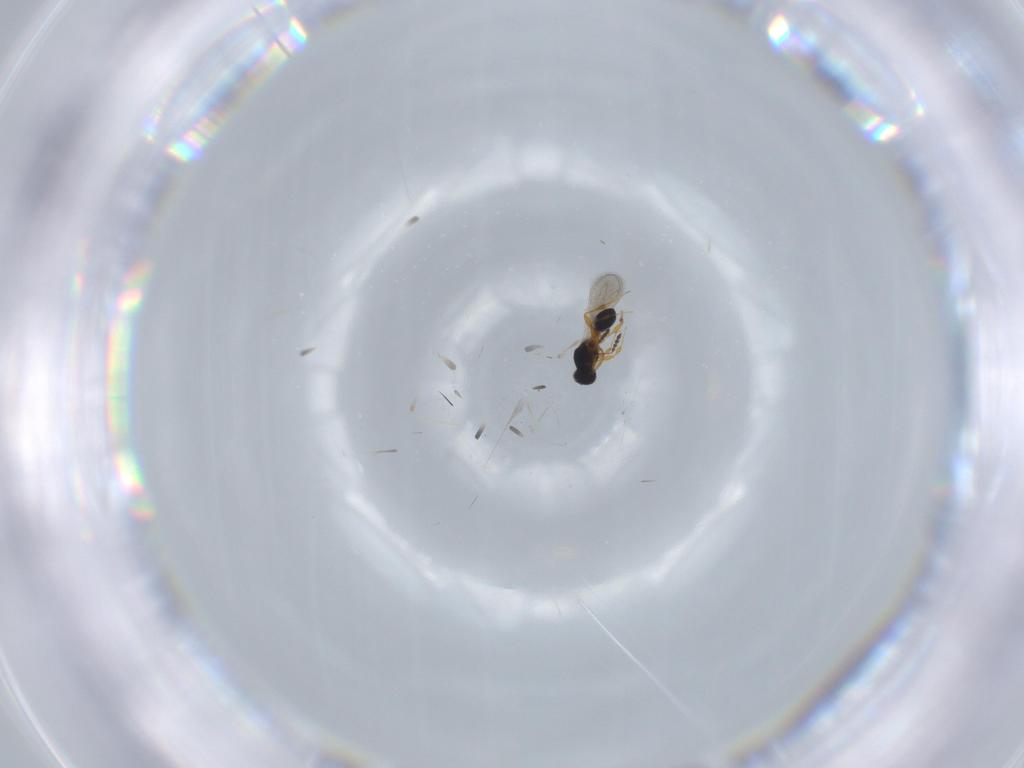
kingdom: Animalia
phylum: Arthropoda
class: Insecta
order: Hymenoptera
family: Platygastridae
